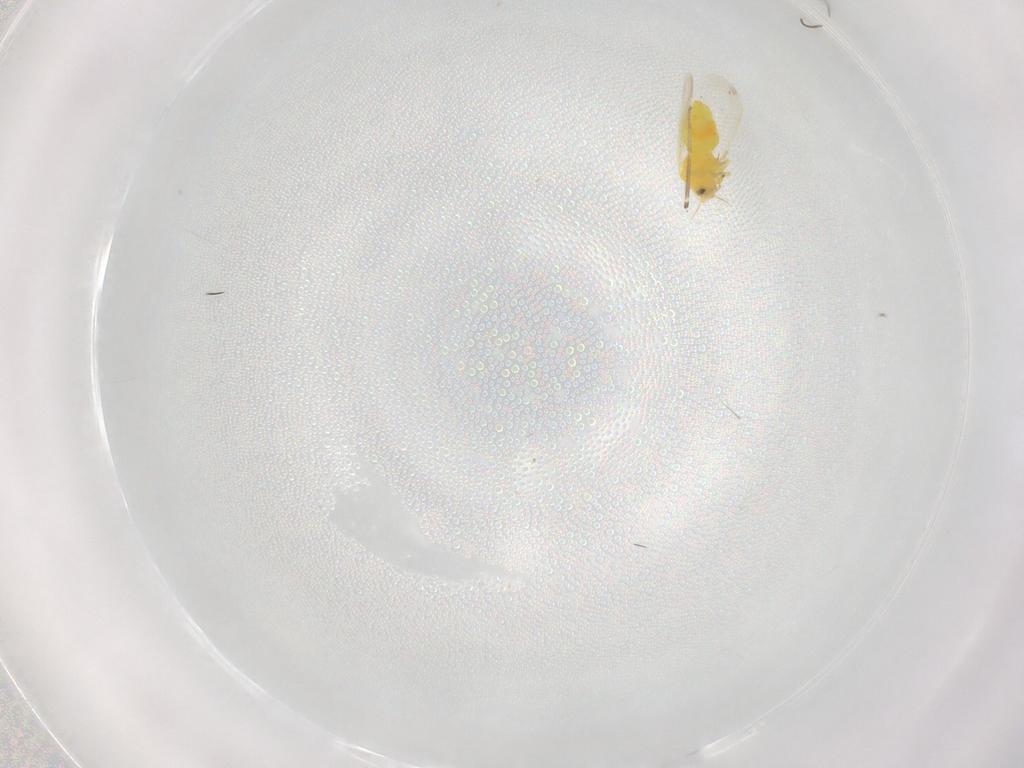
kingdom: Animalia
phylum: Arthropoda
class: Insecta
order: Hemiptera
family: Aleyrodidae
